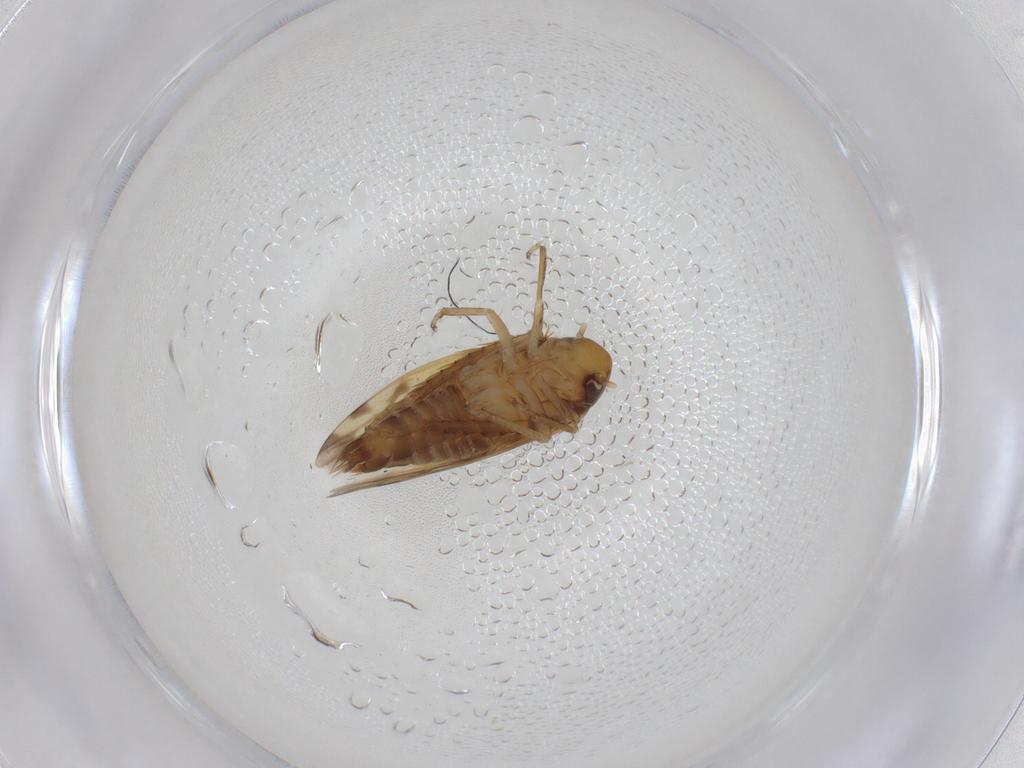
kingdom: Animalia
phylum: Arthropoda
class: Insecta
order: Hemiptera
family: Cicadellidae
